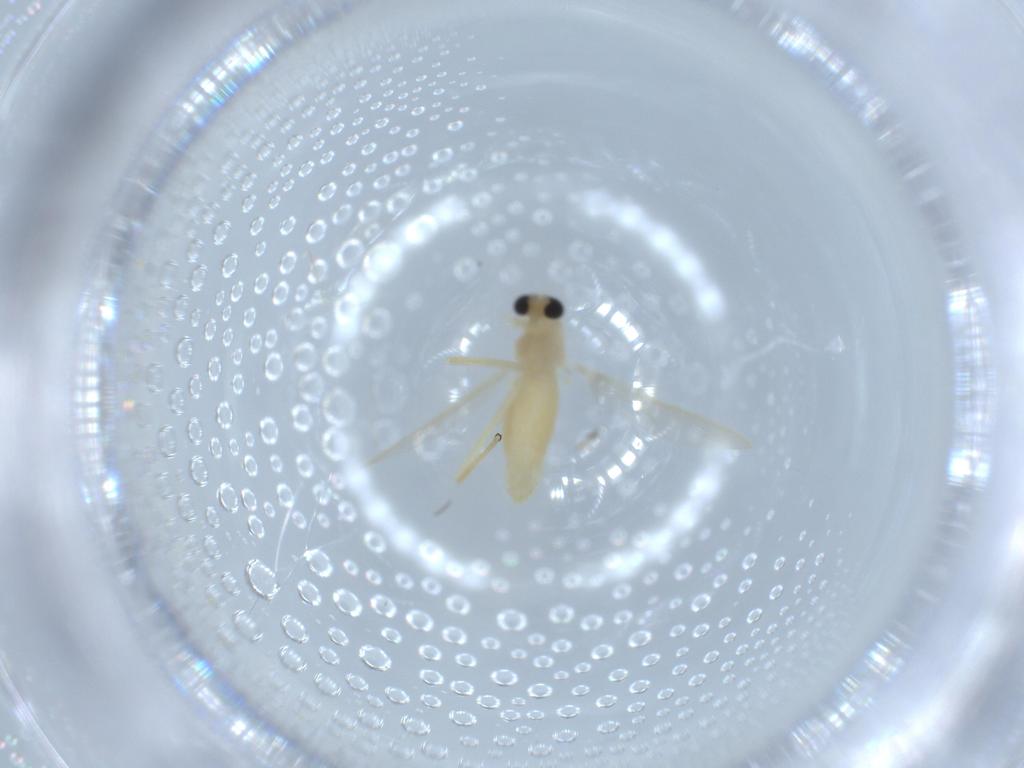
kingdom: Animalia
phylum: Arthropoda
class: Insecta
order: Diptera
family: Chironomidae
